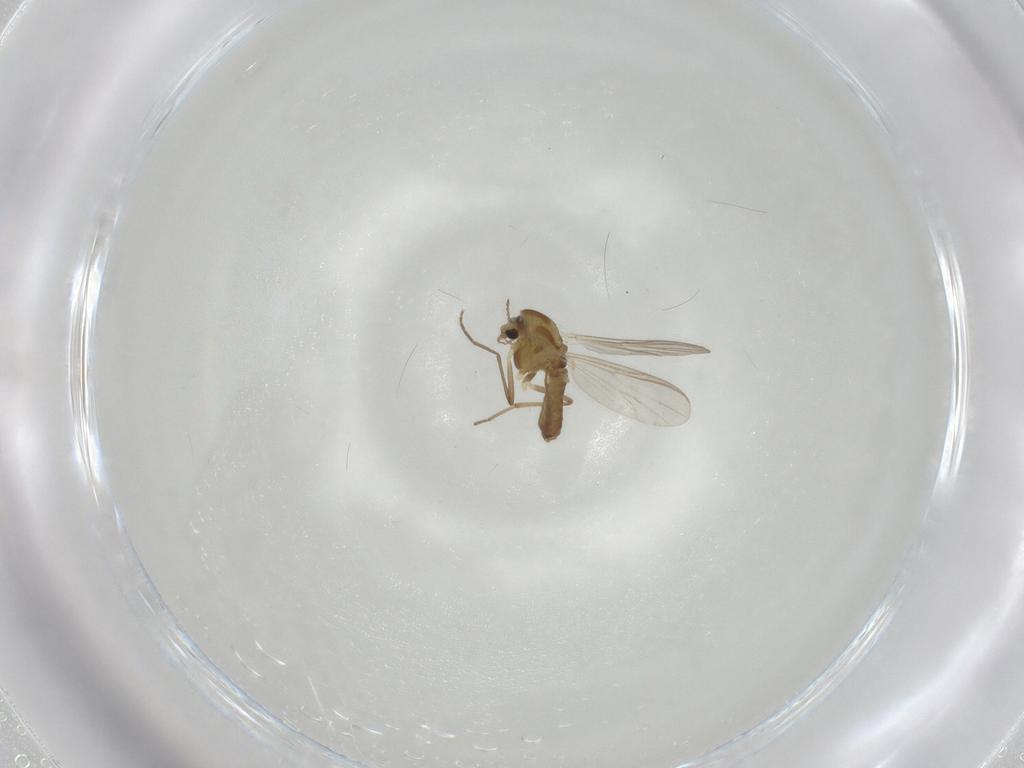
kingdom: Animalia
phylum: Arthropoda
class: Insecta
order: Diptera
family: Chironomidae
